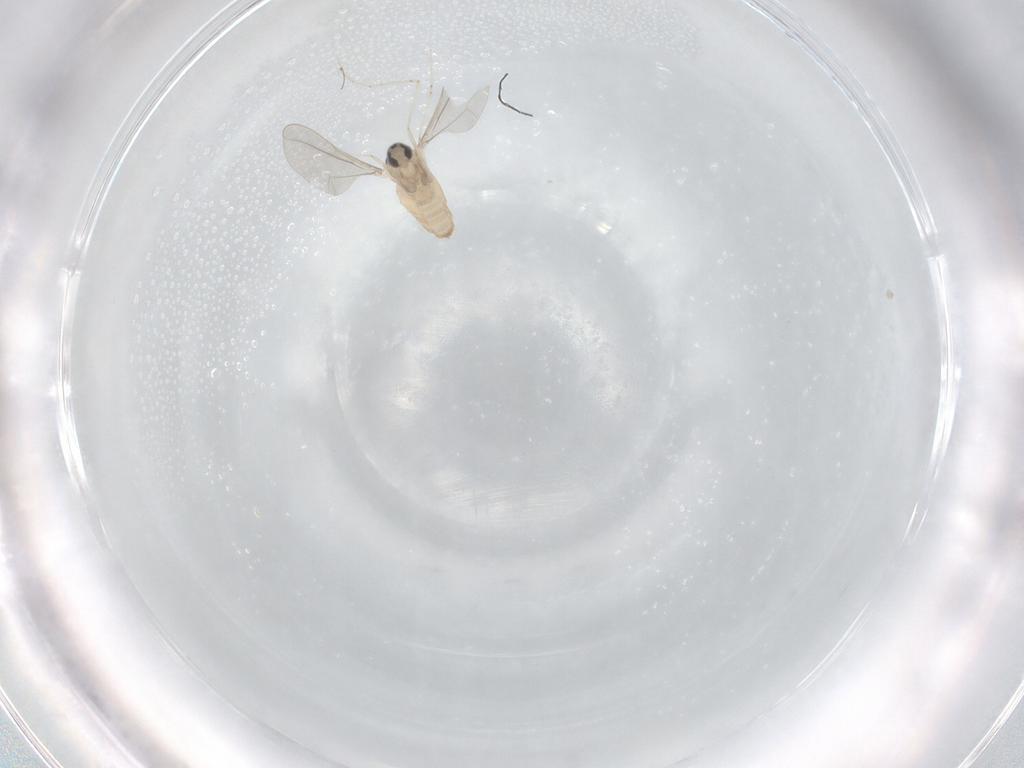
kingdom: Animalia
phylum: Arthropoda
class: Insecta
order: Diptera
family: Cecidomyiidae
